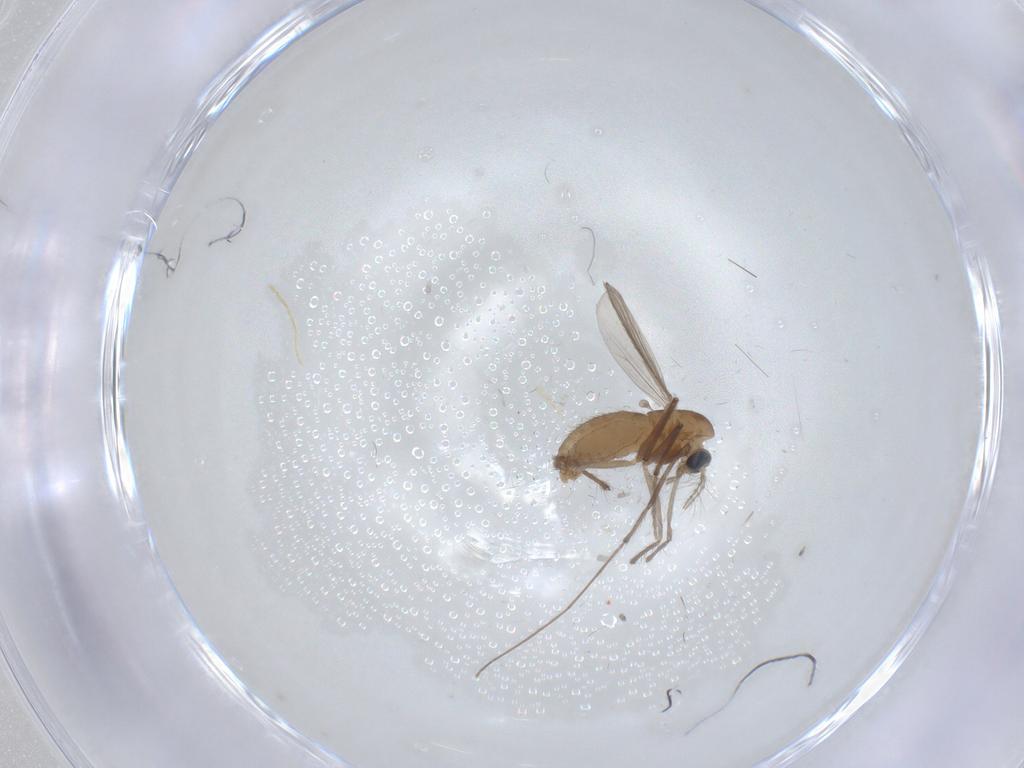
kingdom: Animalia
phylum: Arthropoda
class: Insecta
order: Diptera
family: Chironomidae
